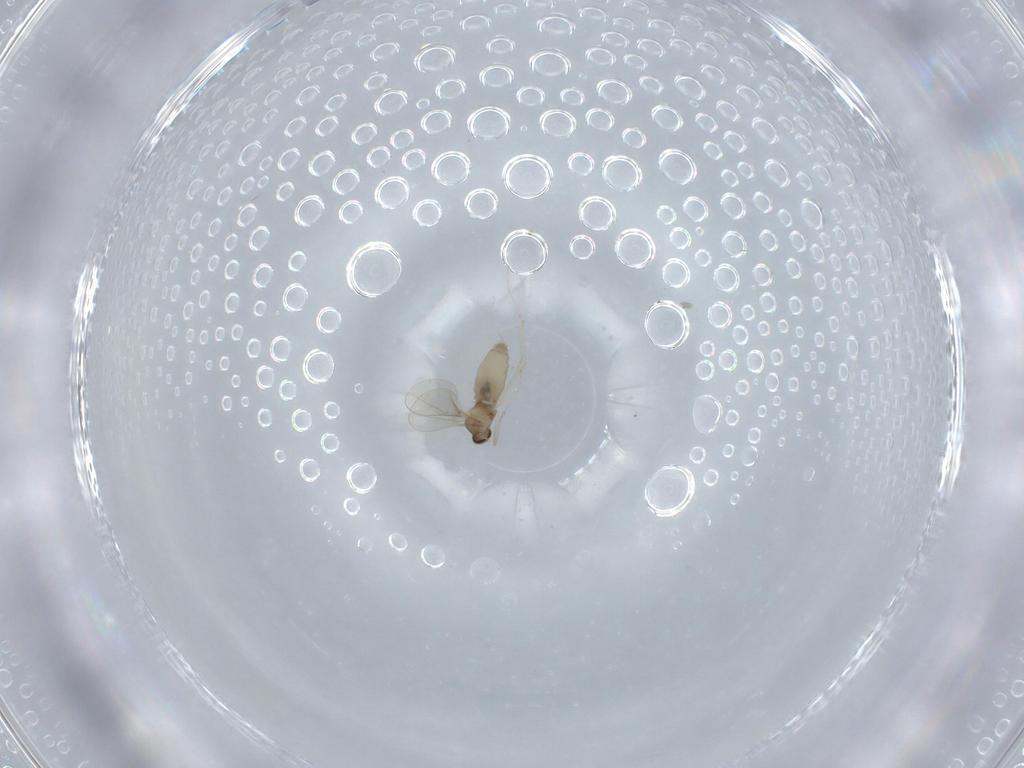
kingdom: Animalia
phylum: Arthropoda
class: Insecta
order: Diptera
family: Cecidomyiidae
